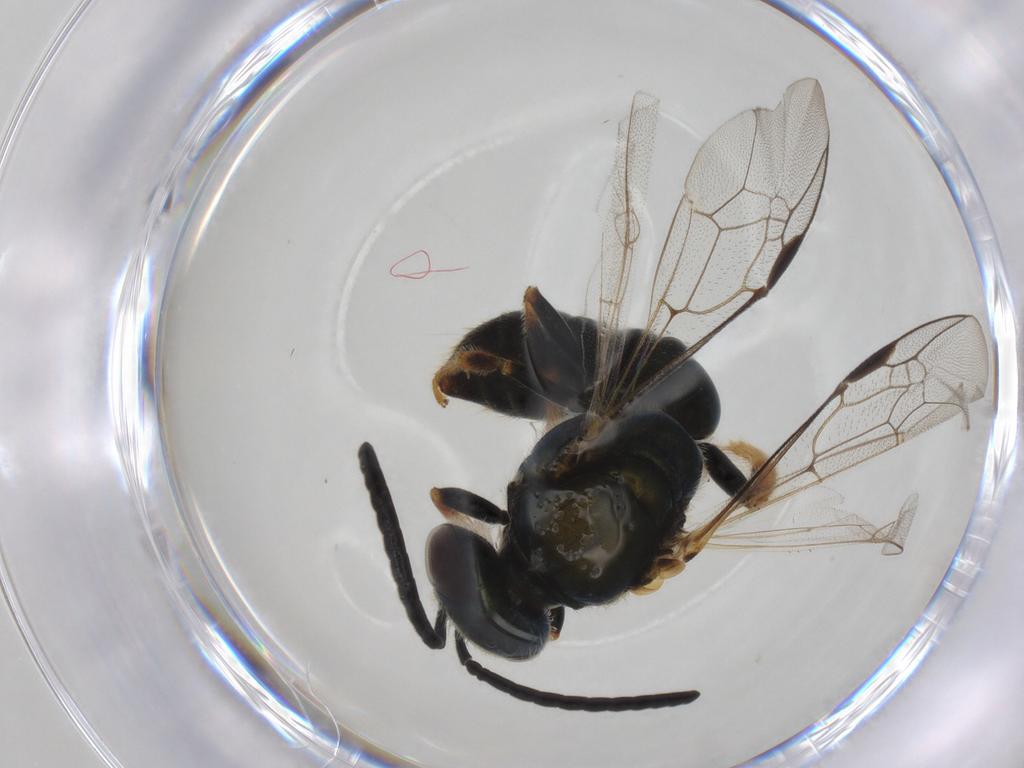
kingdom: Animalia
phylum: Arthropoda
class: Insecta
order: Hymenoptera
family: Halictidae
